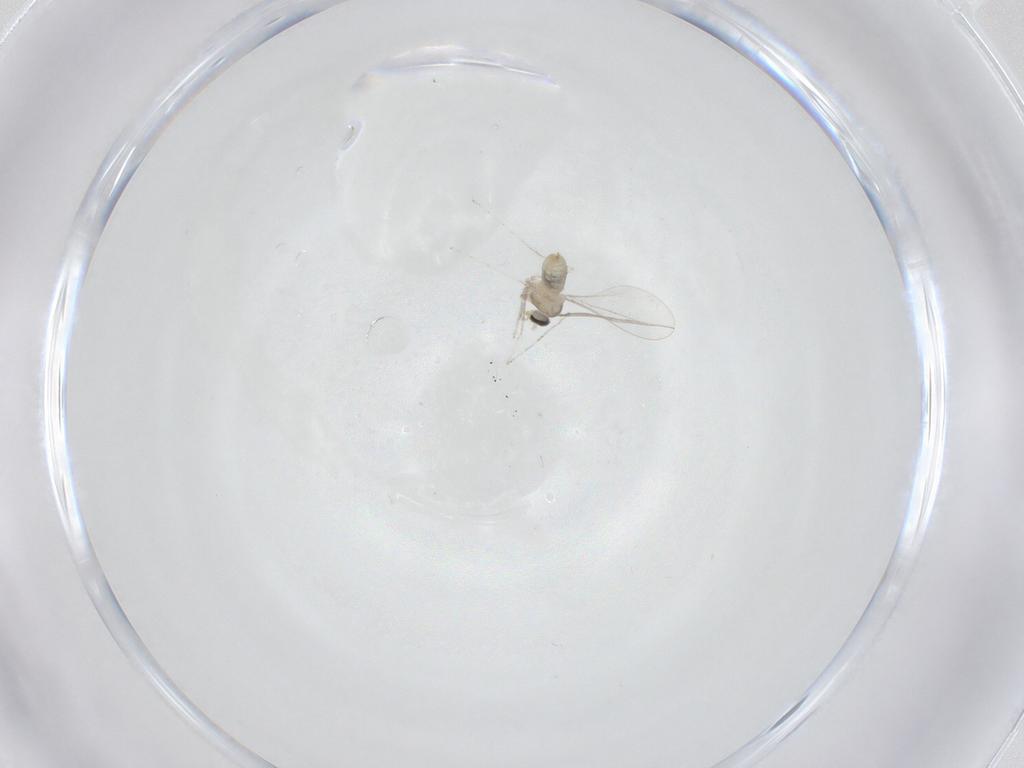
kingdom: Animalia
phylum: Arthropoda
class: Insecta
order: Diptera
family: Cecidomyiidae
